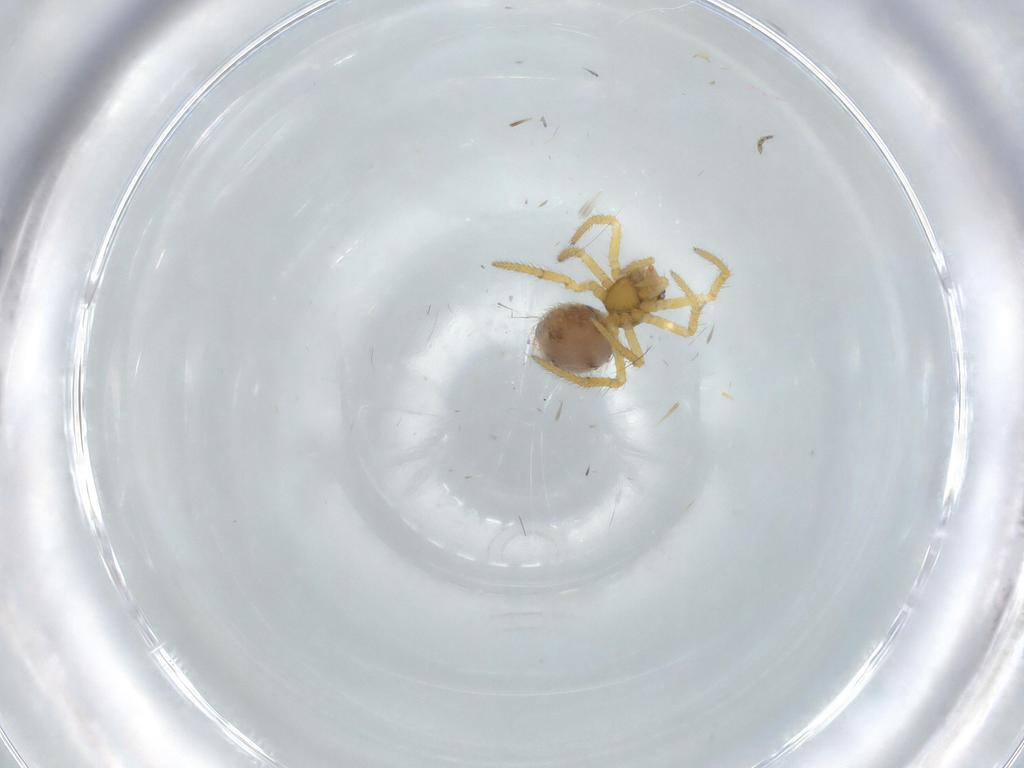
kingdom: Animalia
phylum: Arthropoda
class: Arachnida
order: Araneae
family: Theridiidae
